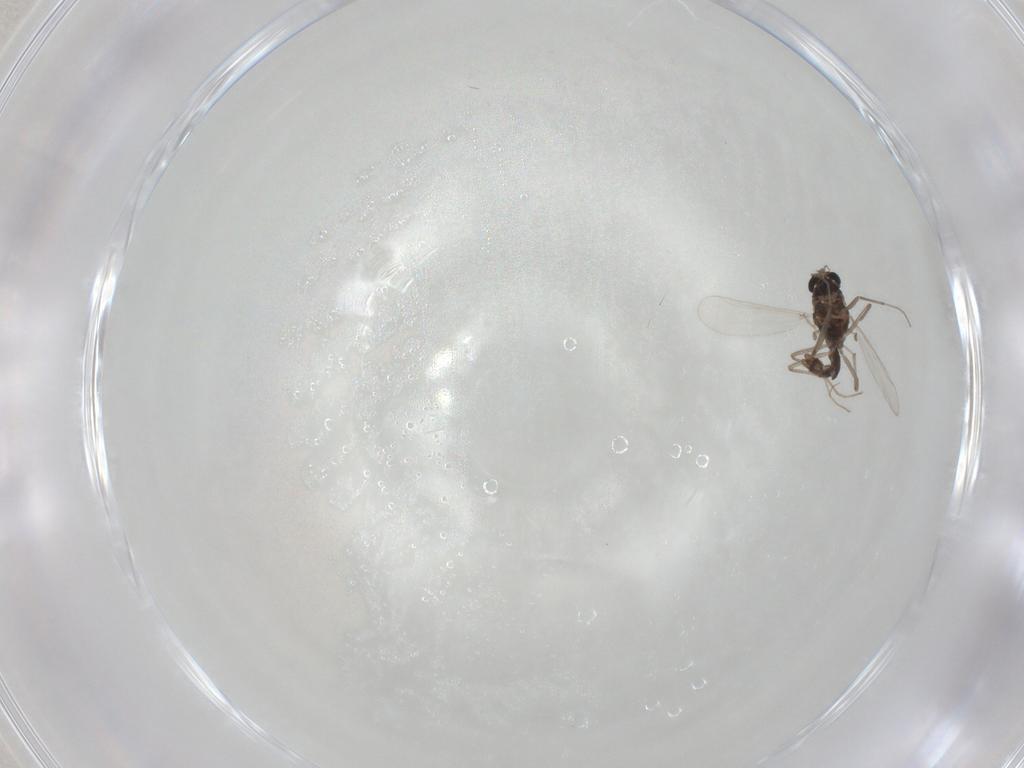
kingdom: Animalia
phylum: Arthropoda
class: Insecta
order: Diptera
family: Chironomidae
